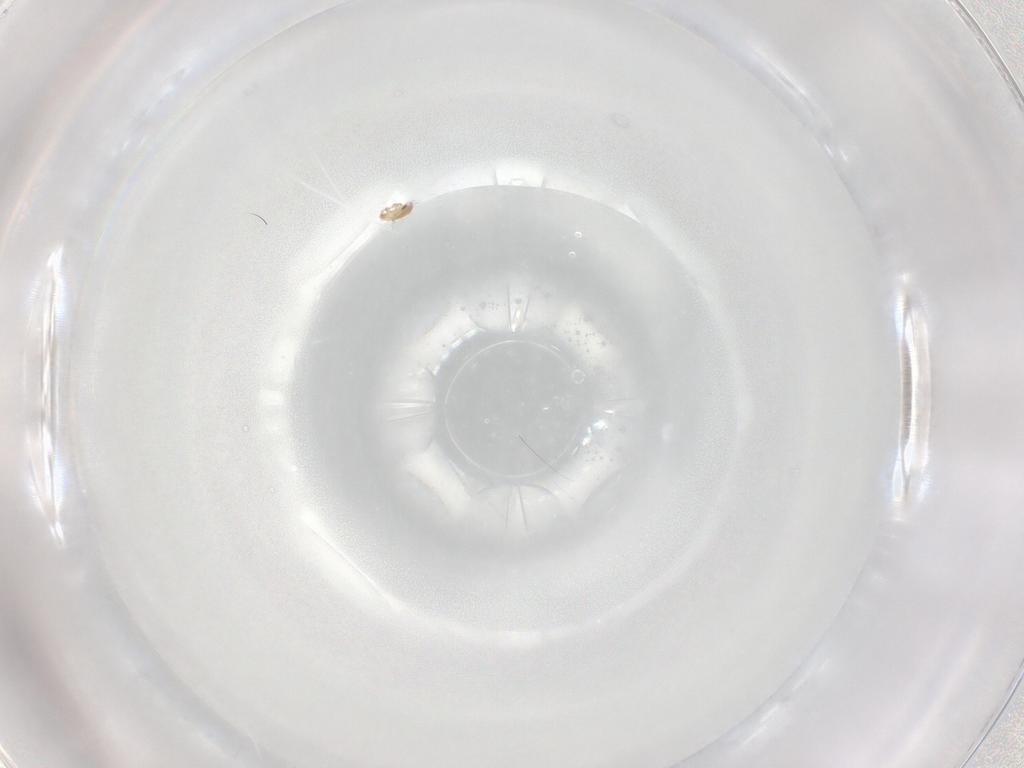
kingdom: Animalia
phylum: Arthropoda
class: Arachnida
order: Sarcoptiformes
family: Humerobatidae
